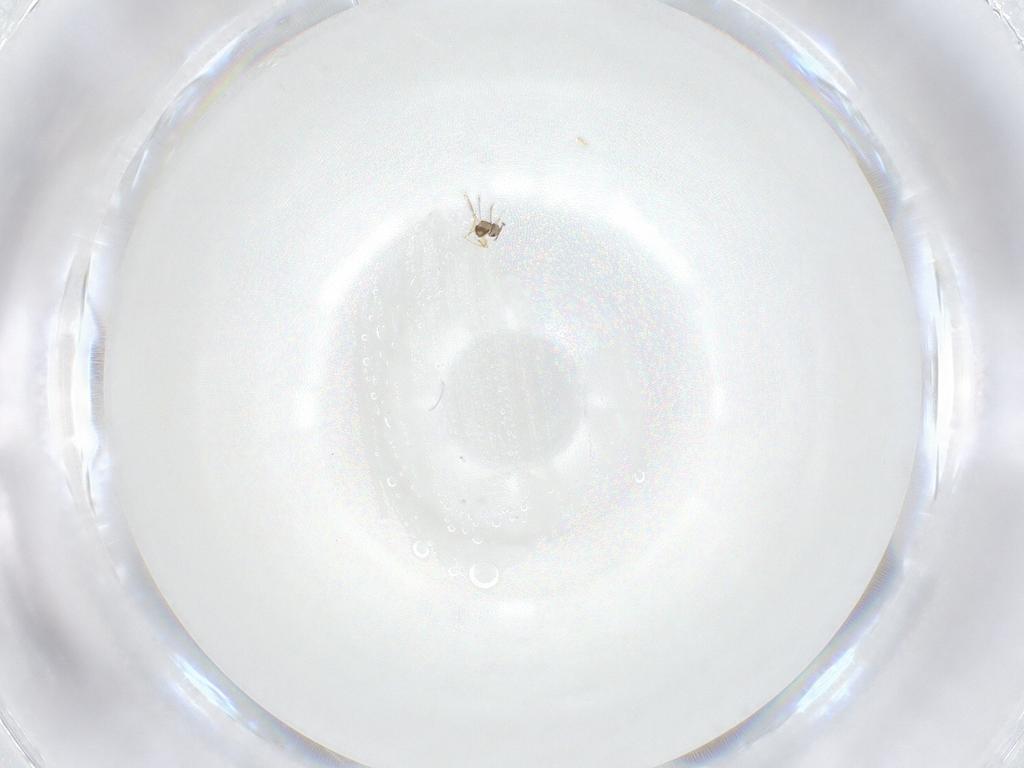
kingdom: Animalia
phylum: Arthropoda
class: Insecta
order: Hymenoptera
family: Mymaridae
